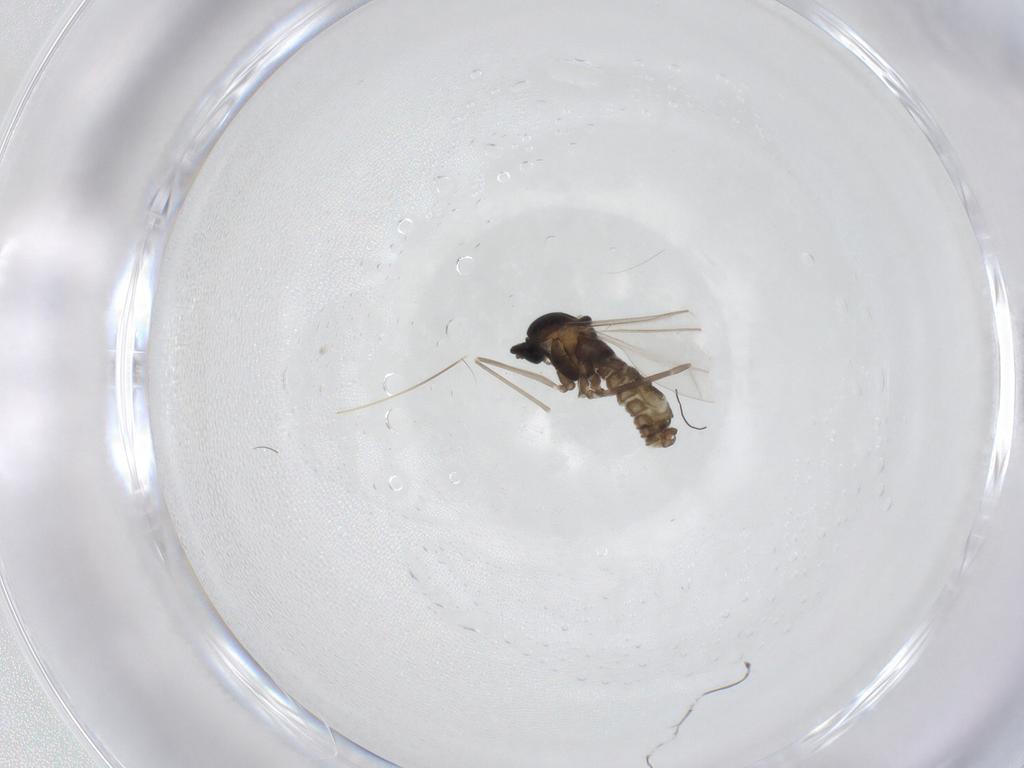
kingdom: Animalia
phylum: Arthropoda
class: Insecta
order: Diptera
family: Cecidomyiidae
